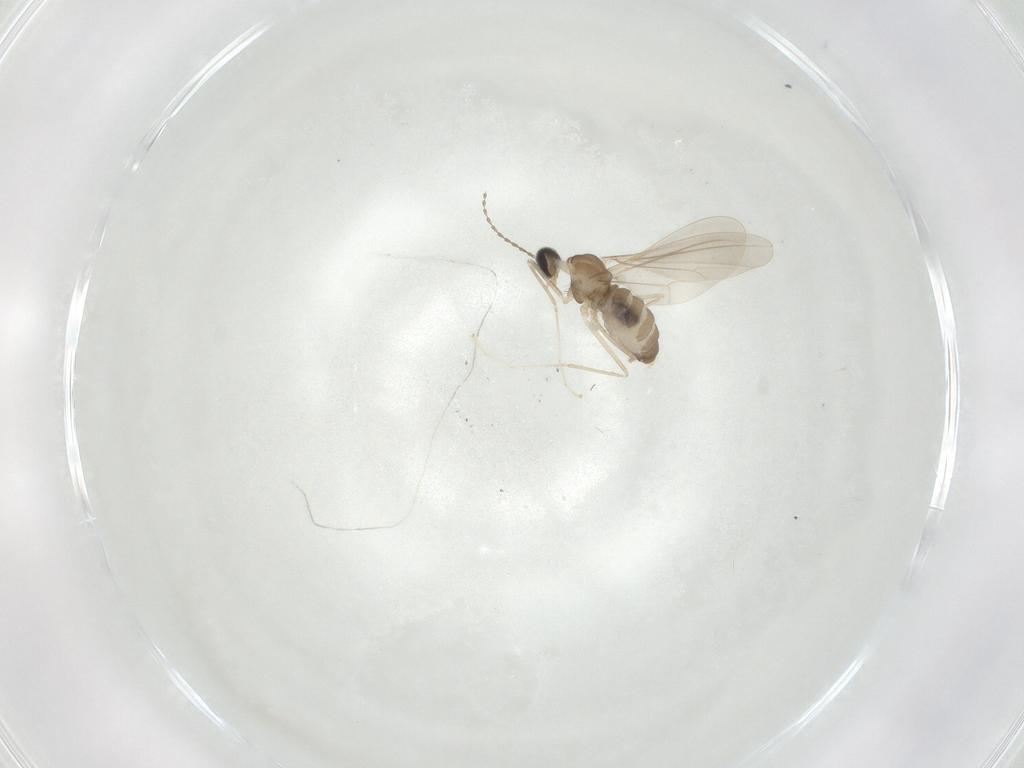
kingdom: Animalia
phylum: Arthropoda
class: Insecta
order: Diptera
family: Cecidomyiidae
